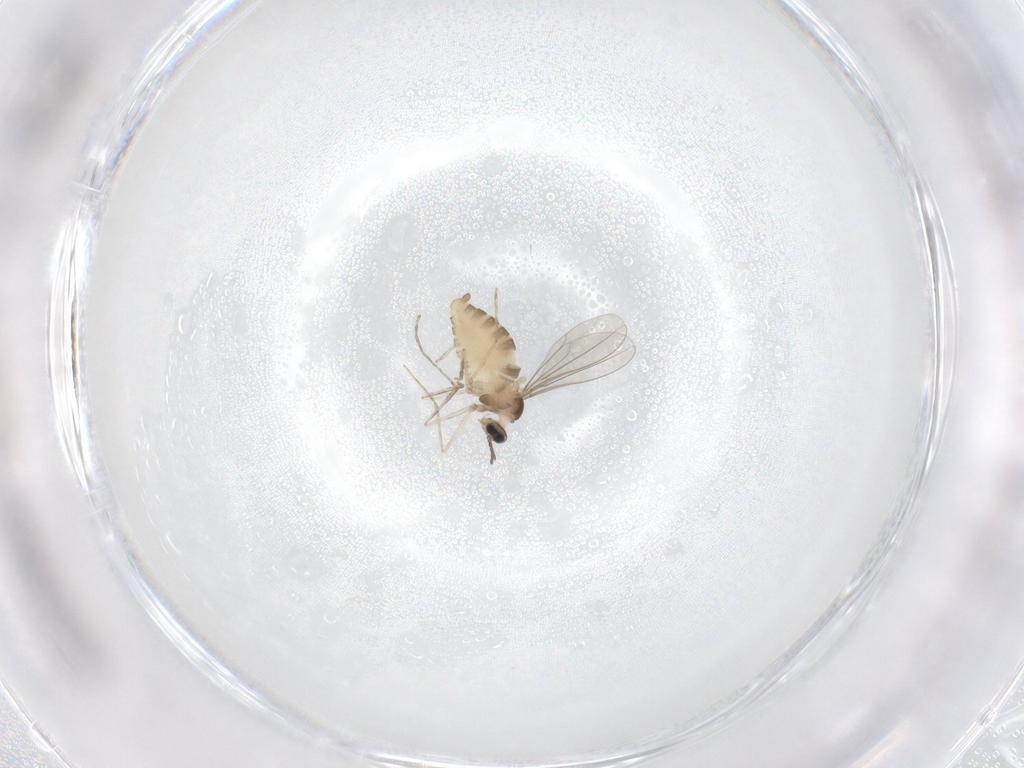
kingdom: Animalia
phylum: Arthropoda
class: Insecta
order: Diptera
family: Cecidomyiidae
